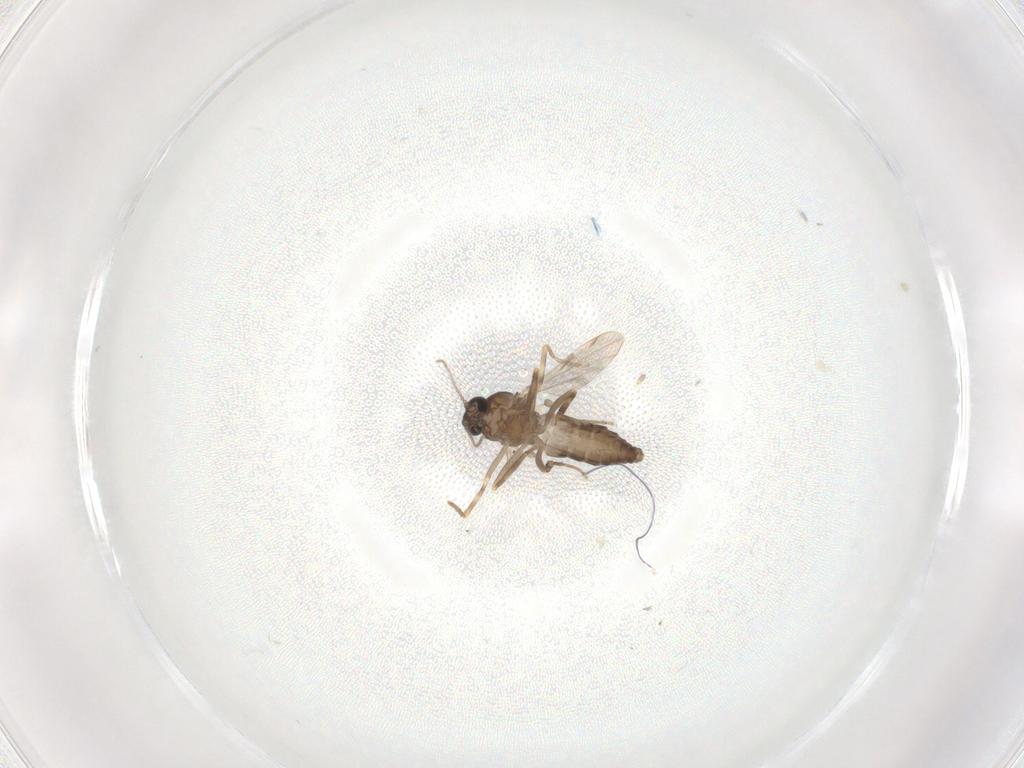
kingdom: Animalia
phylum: Arthropoda
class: Insecta
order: Diptera
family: Ceratopogonidae
